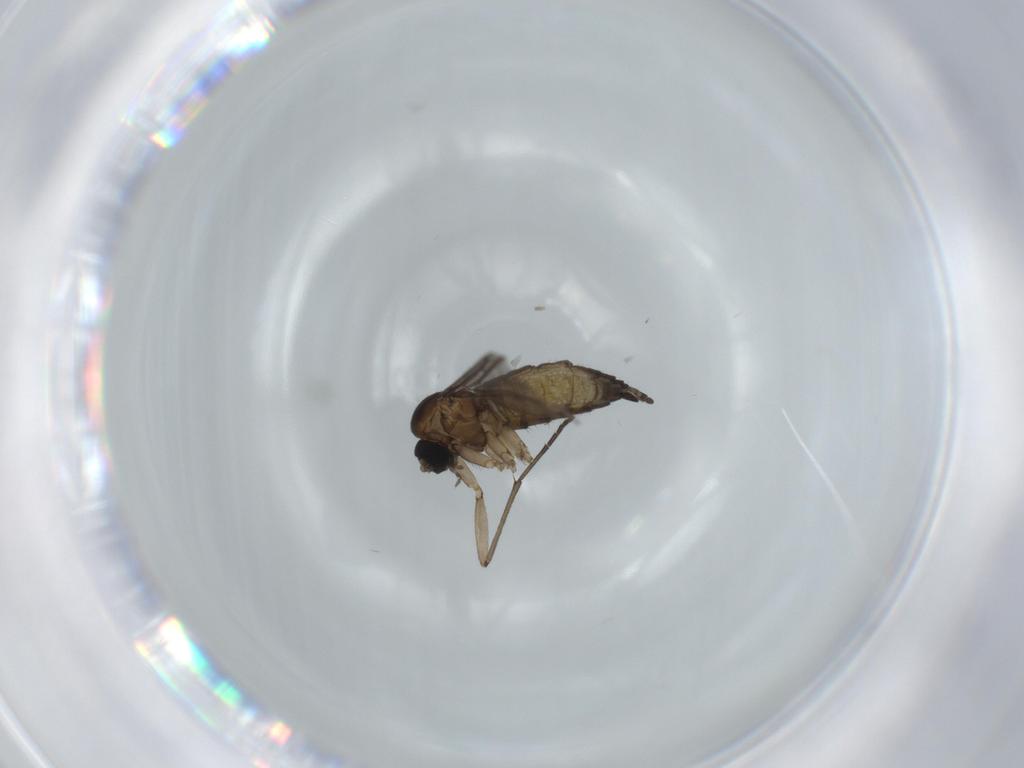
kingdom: Animalia
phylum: Arthropoda
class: Insecta
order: Diptera
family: Sciaridae
